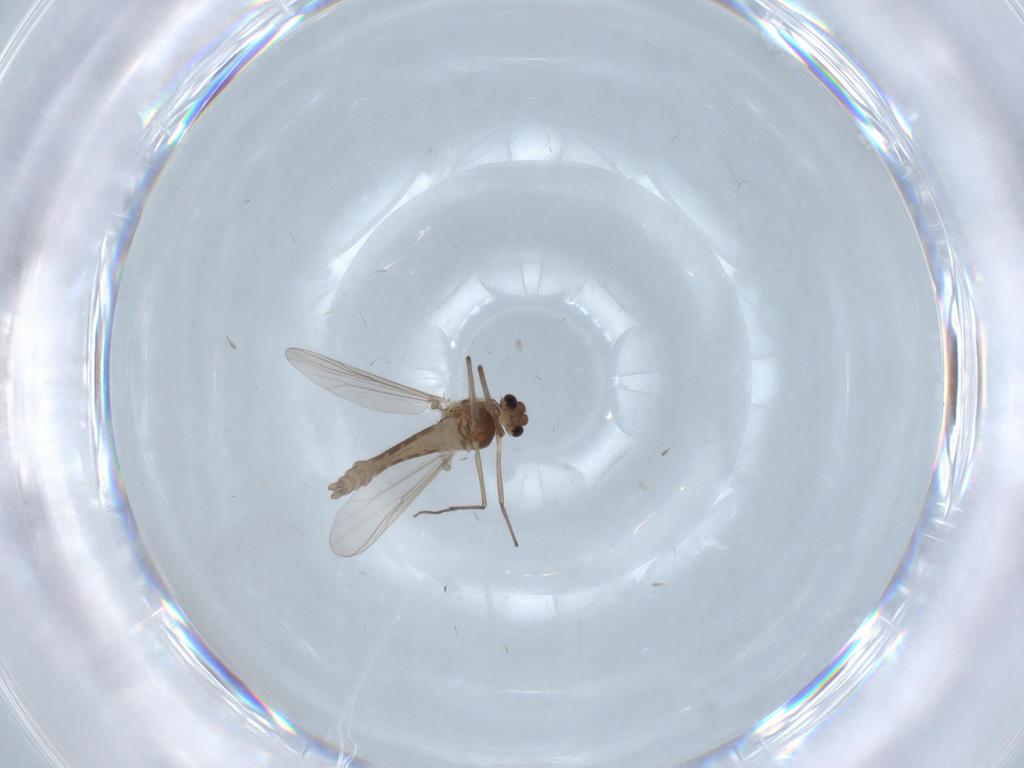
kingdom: Animalia
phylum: Arthropoda
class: Insecta
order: Diptera
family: Chironomidae
